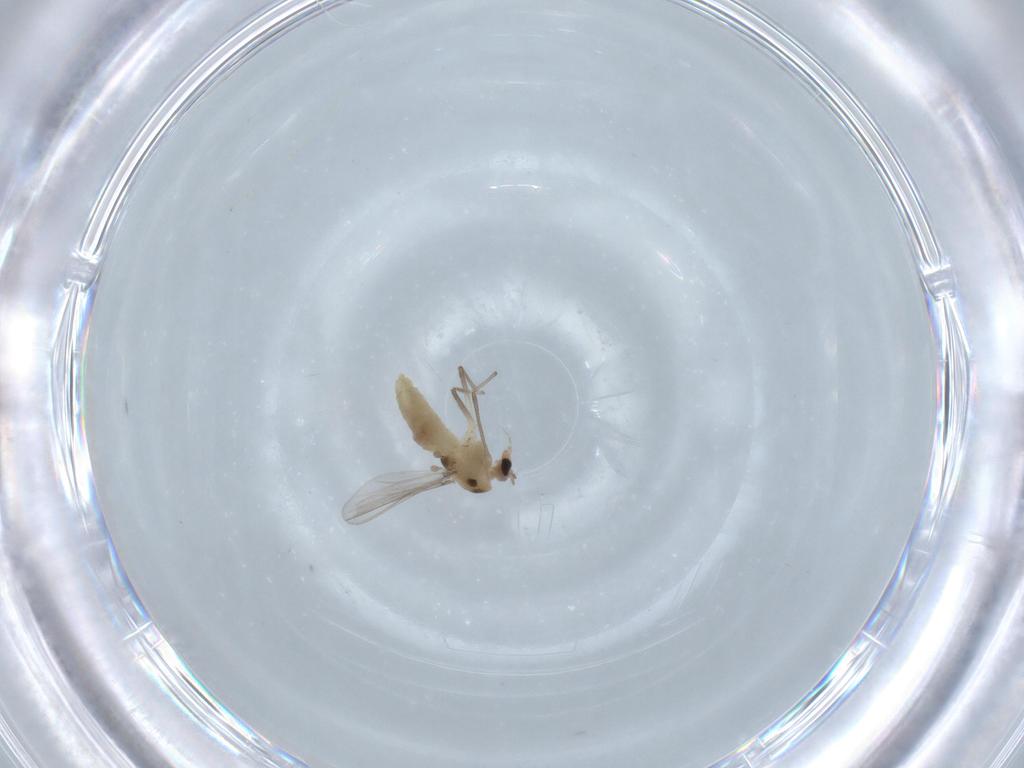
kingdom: Animalia
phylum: Arthropoda
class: Insecta
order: Diptera
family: Chironomidae
